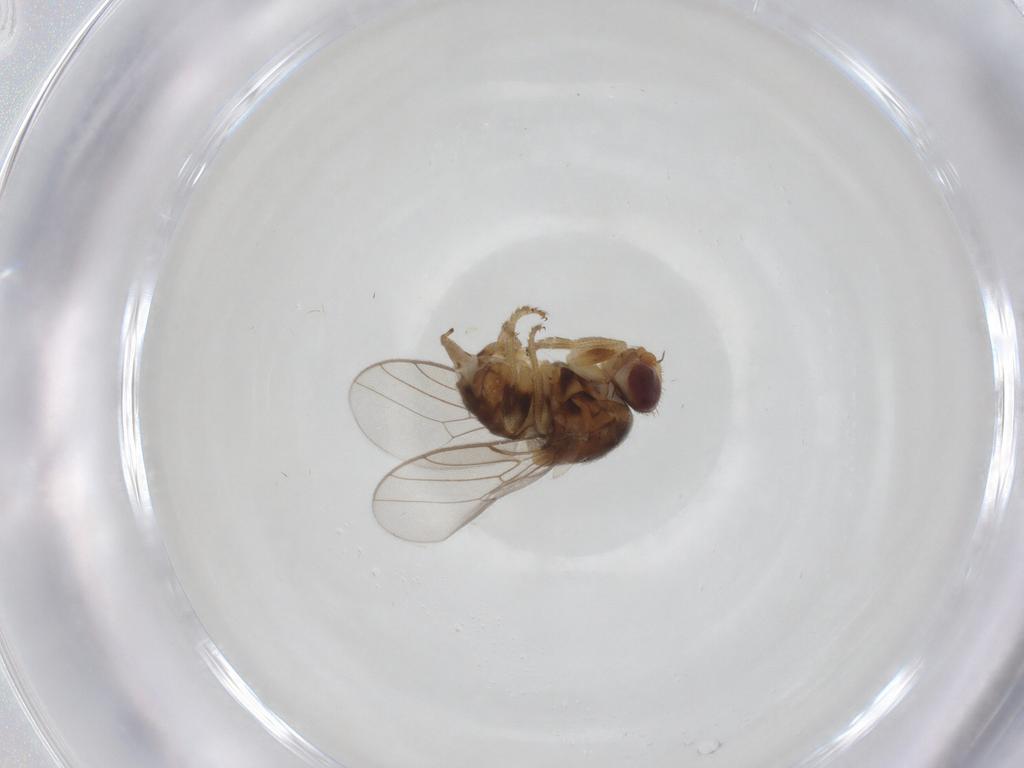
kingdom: Animalia
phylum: Arthropoda
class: Insecta
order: Diptera
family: Chloropidae
